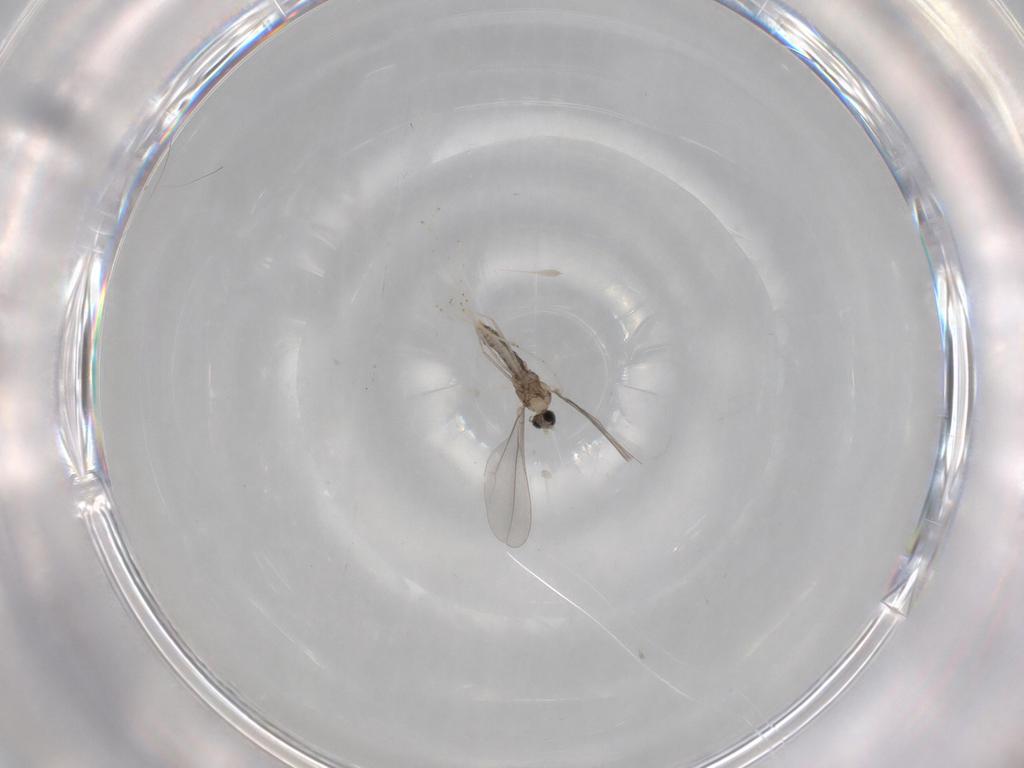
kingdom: Animalia
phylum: Arthropoda
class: Insecta
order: Diptera
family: Cecidomyiidae
